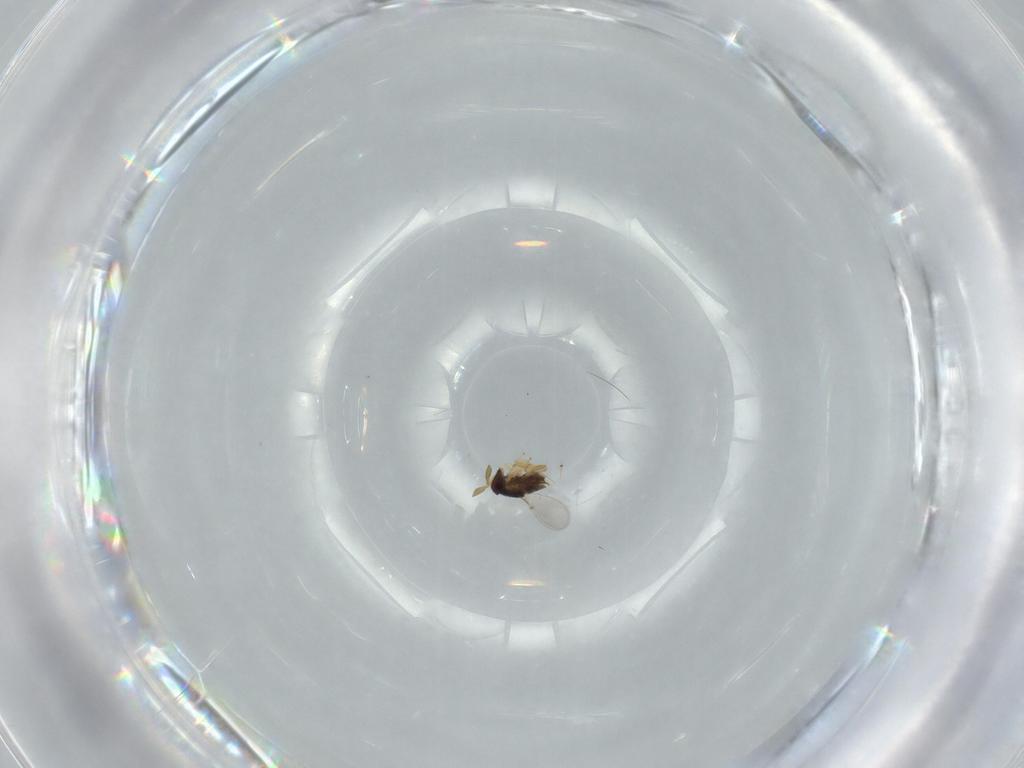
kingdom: Animalia
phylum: Arthropoda
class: Insecta
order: Hymenoptera
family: Encyrtidae
